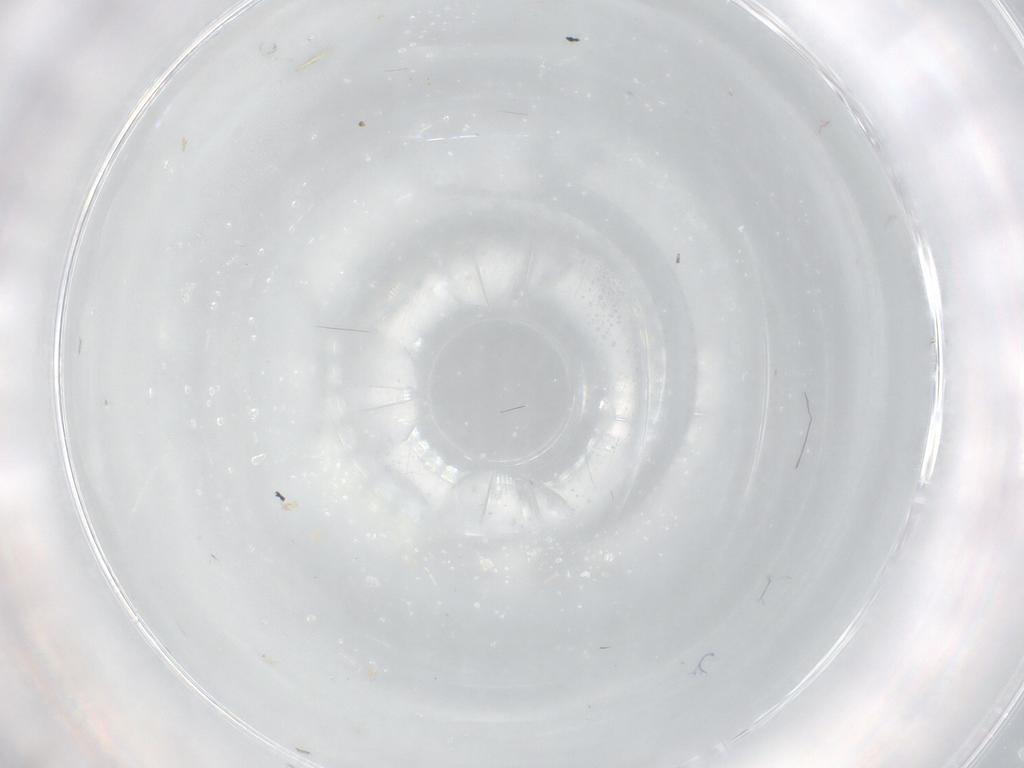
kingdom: Animalia
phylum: Arthropoda
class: Insecta
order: Diptera
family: Cecidomyiidae
